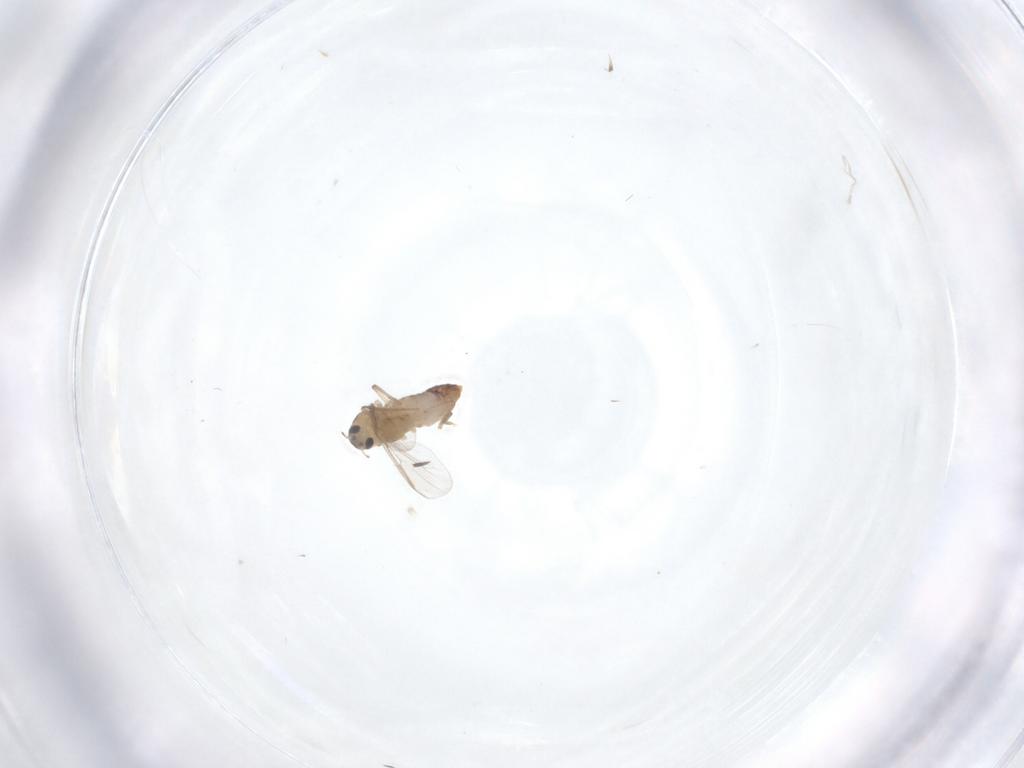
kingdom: Animalia
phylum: Arthropoda
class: Insecta
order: Diptera
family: Chironomidae
